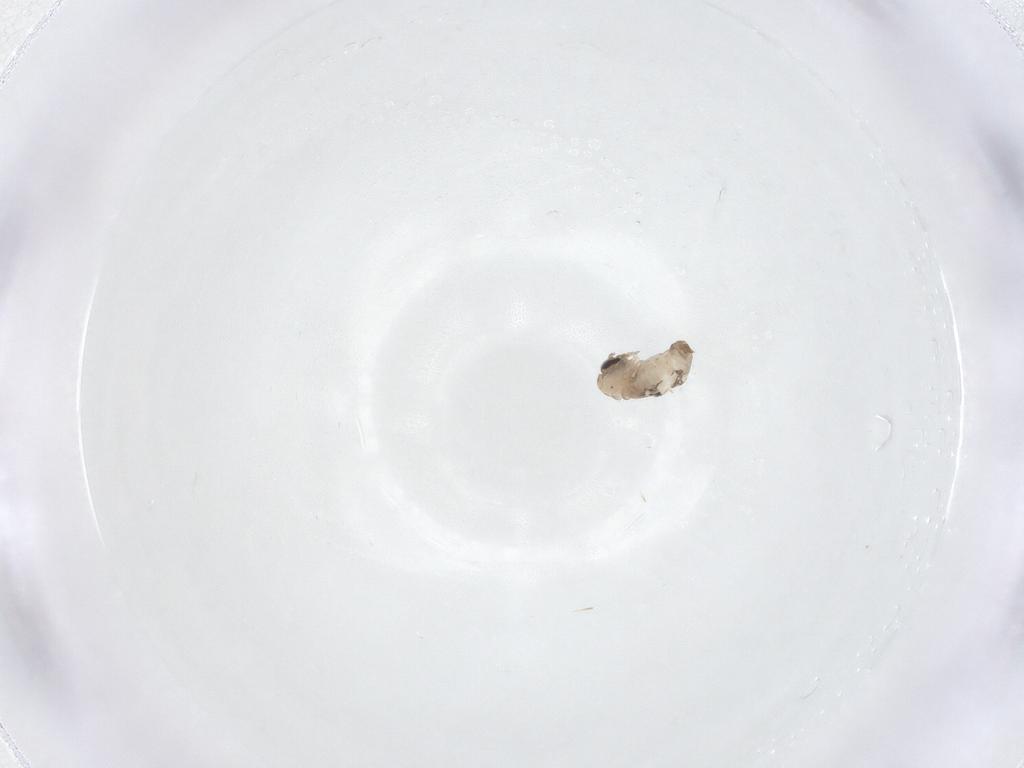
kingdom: Animalia
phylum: Arthropoda
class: Insecta
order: Diptera
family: Psychodidae
